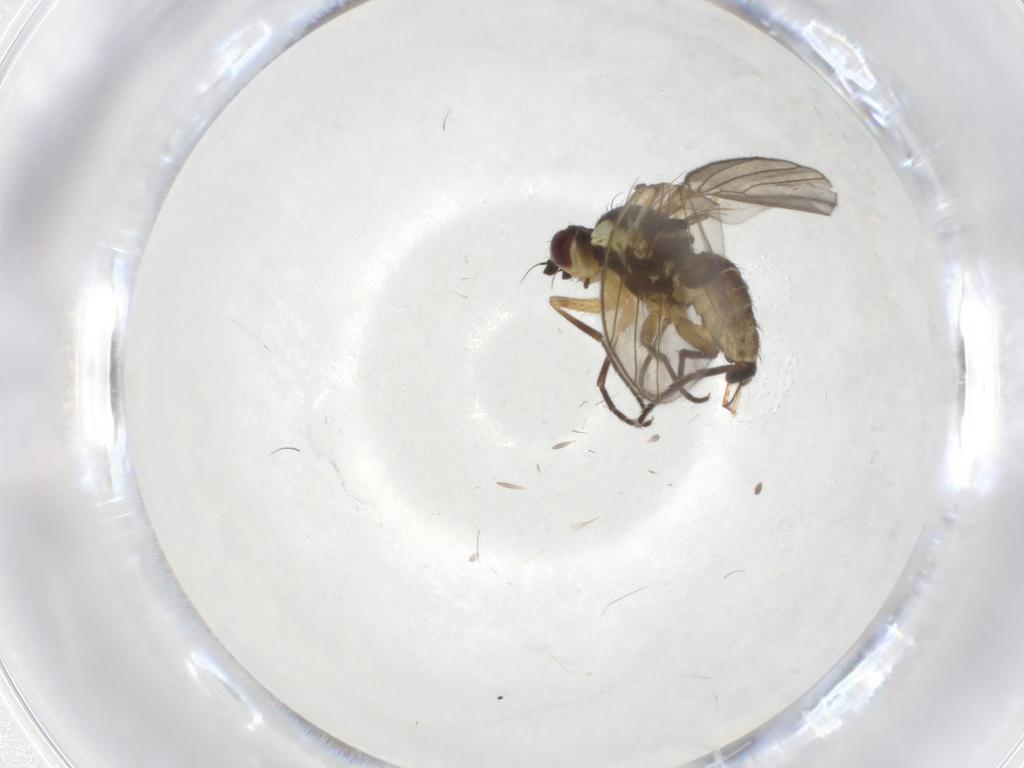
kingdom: Animalia
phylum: Arthropoda
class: Insecta
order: Diptera
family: Agromyzidae
